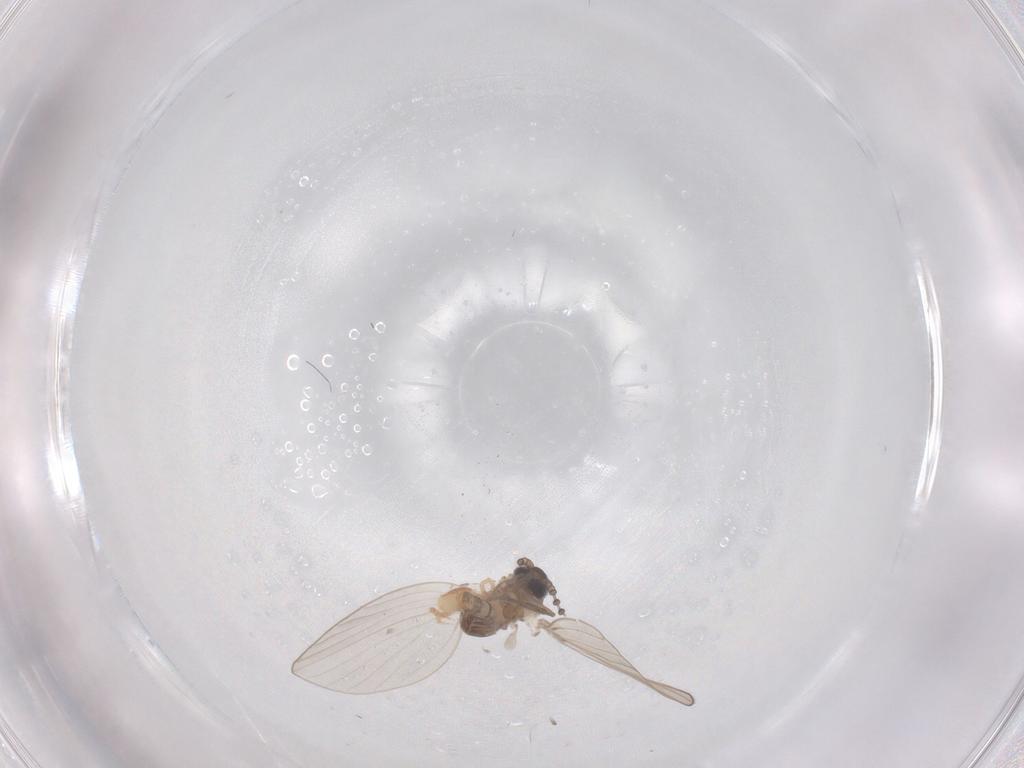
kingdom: Animalia
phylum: Arthropoda
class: Insecta
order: Diptera
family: Psychodidae
